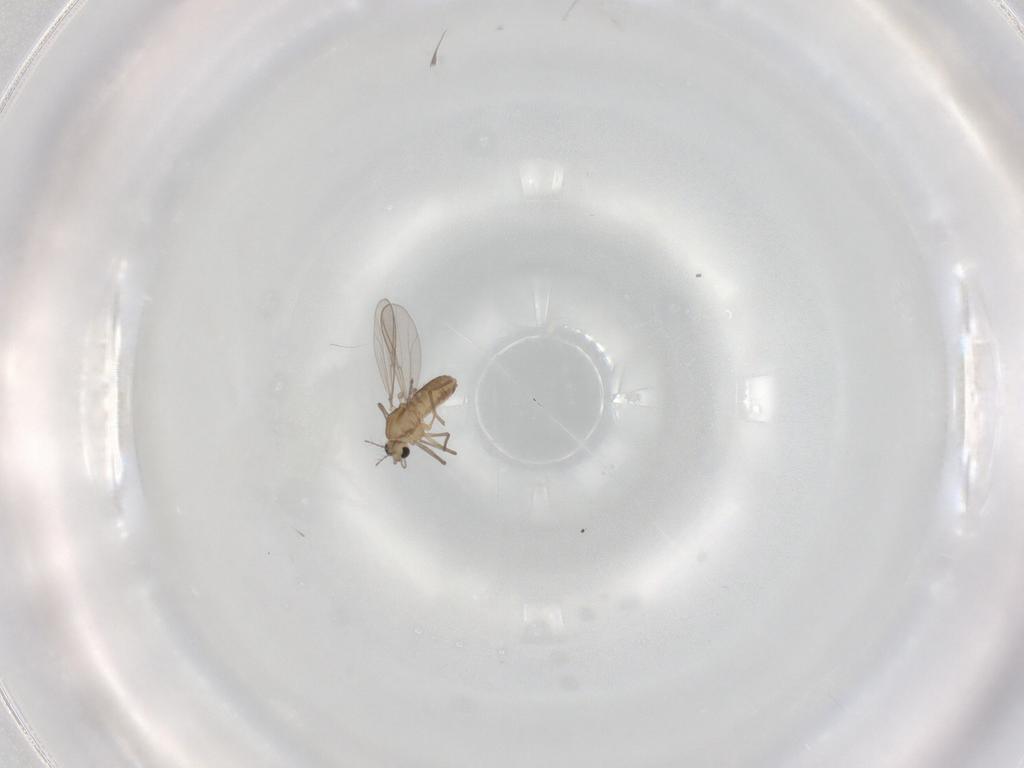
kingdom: Animalia
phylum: Arthropoda
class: Insecta
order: Diptera
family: Chironomidae
